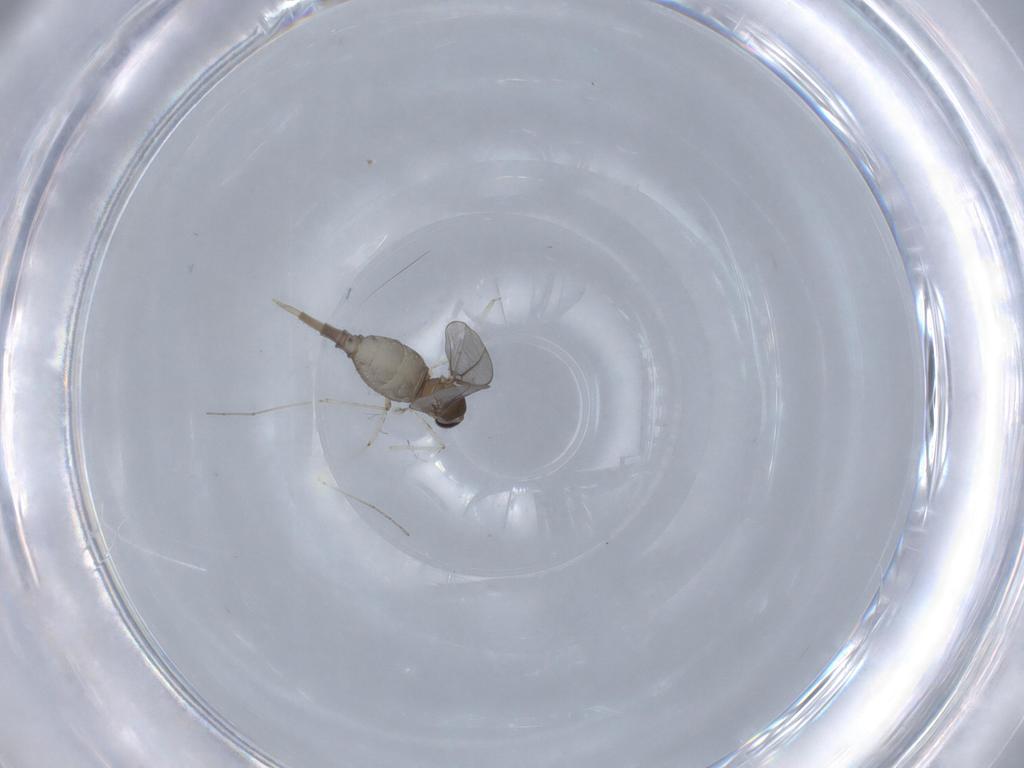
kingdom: Animalia
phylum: Arthropoda
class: Insecta
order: Diptera
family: Cecidomyiidae
